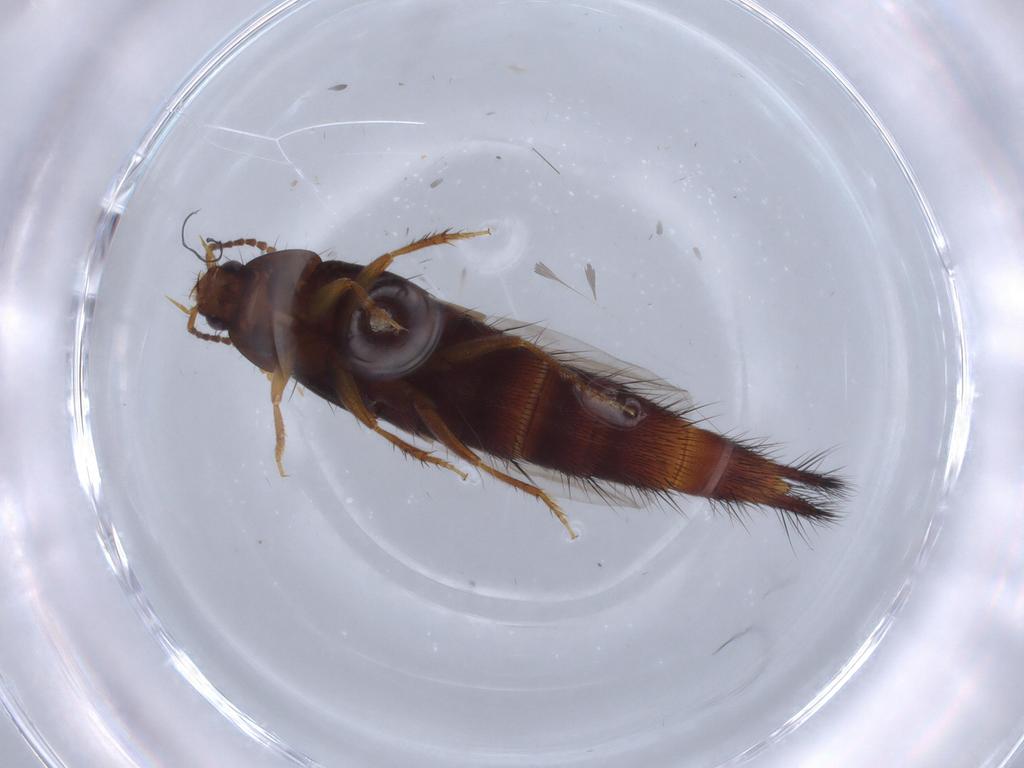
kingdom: Animalia
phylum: Arthropoda
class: Insecta
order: Coleoptera
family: Staphylinidae
